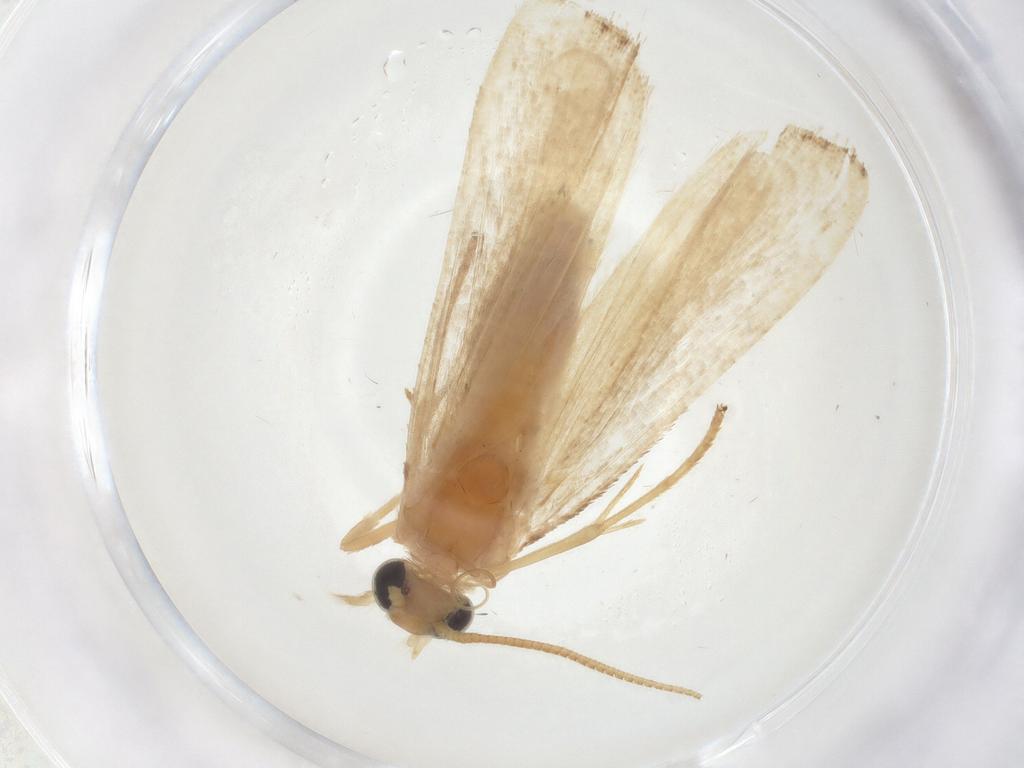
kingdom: Animalia
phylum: Arthropoda
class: Insecta
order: Lepidoptera
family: Pyralidae
